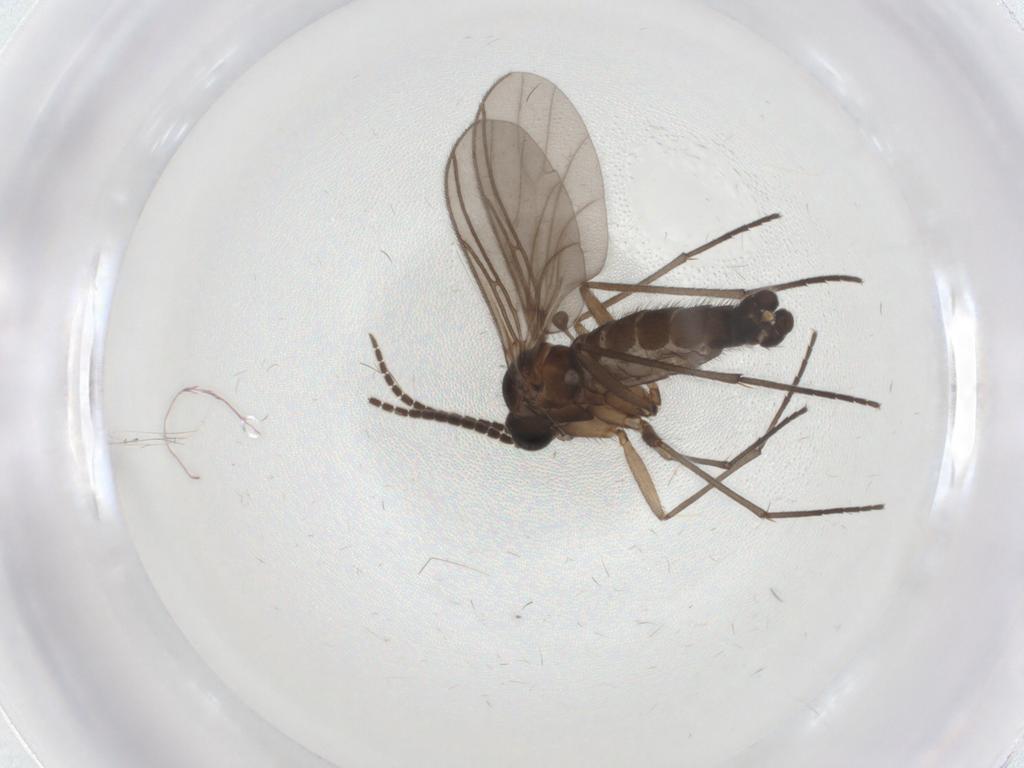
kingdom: Animalia
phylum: Arthropoda
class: Insecta
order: Diptera
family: Sciaridae
